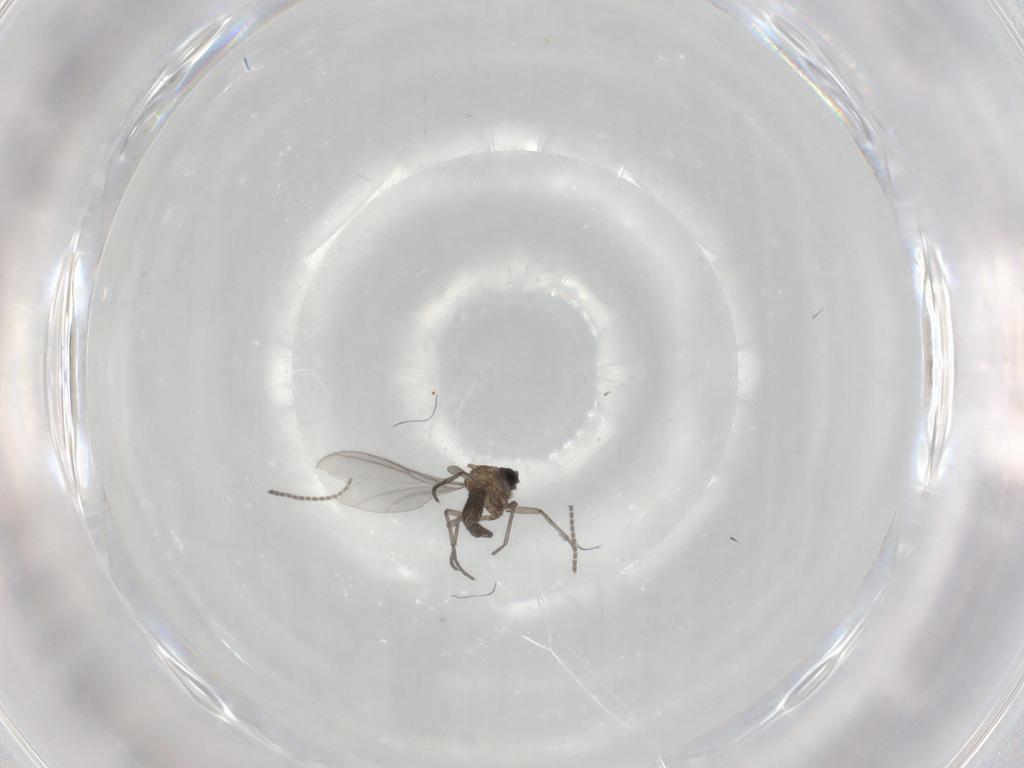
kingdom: Animalia
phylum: Arthropoda
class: Insecta
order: Diptera
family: Sciaridae
